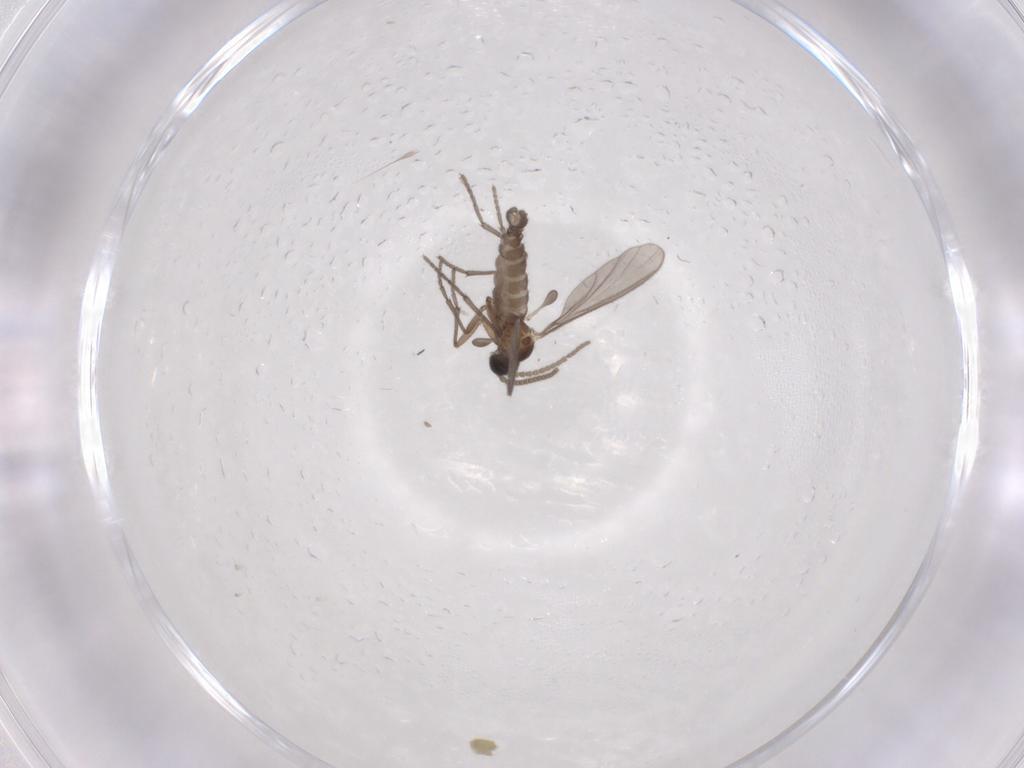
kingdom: Animalia
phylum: Arthropoda
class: Insecta
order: Diptera
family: Sciaridae
